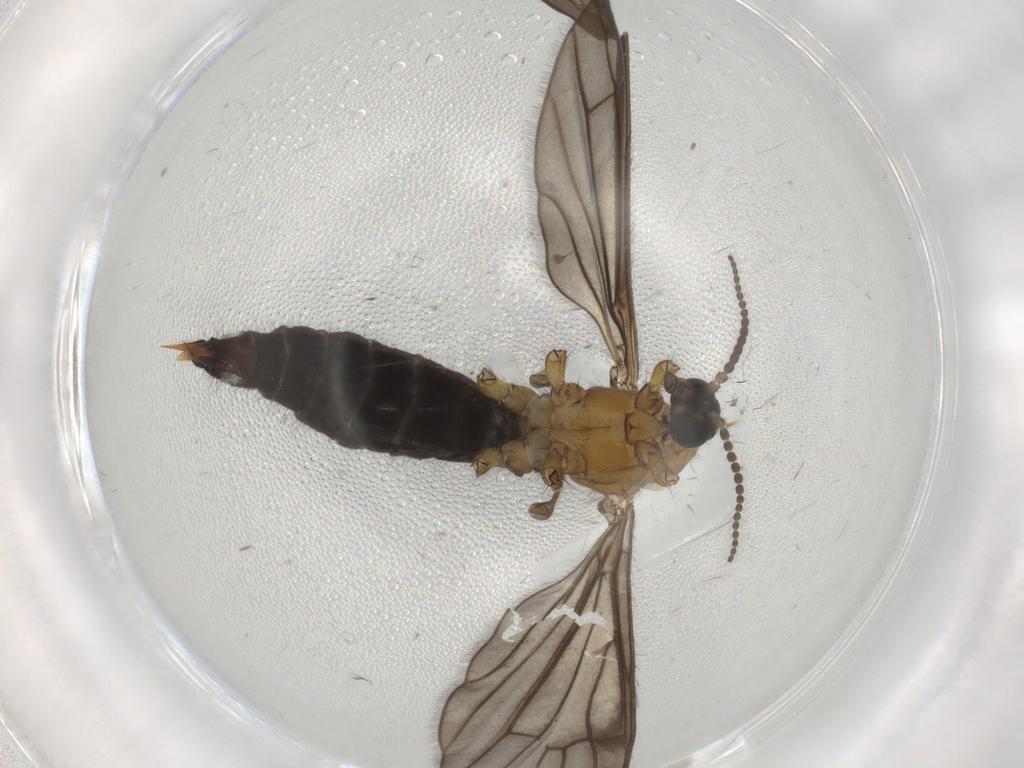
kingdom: Animalia
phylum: Arthropoda
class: Insecta
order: Diptera
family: Limoniidae
